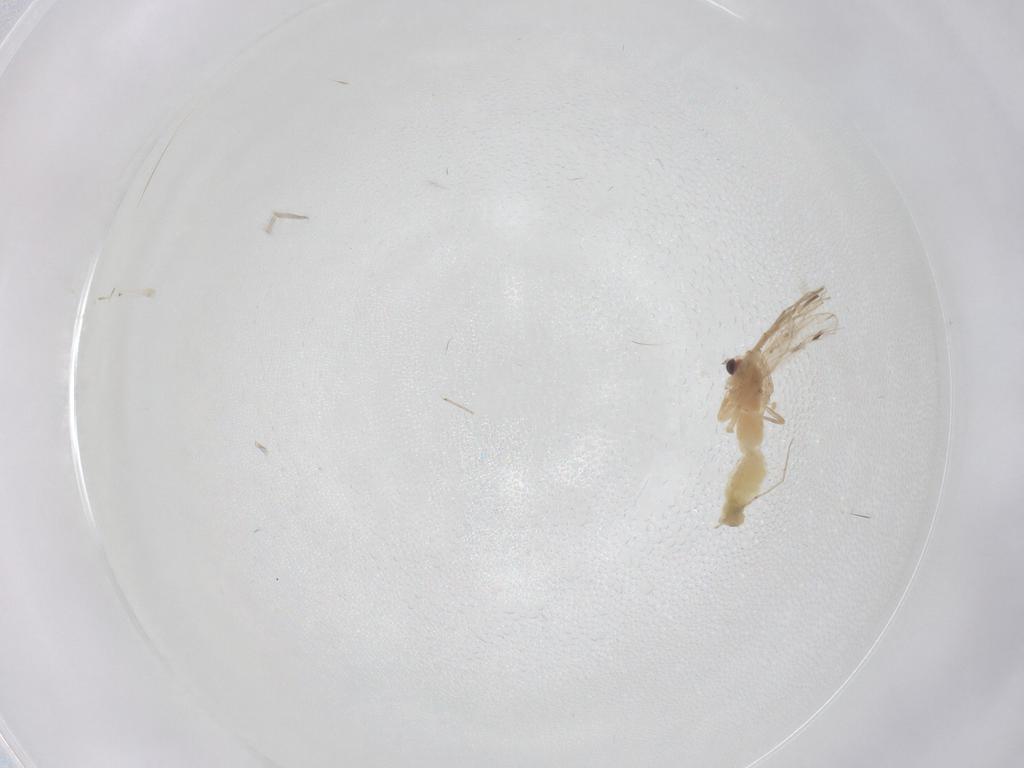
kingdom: Animalia
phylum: Arthropoda
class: Insecta
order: Diptera
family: Chironomidae
